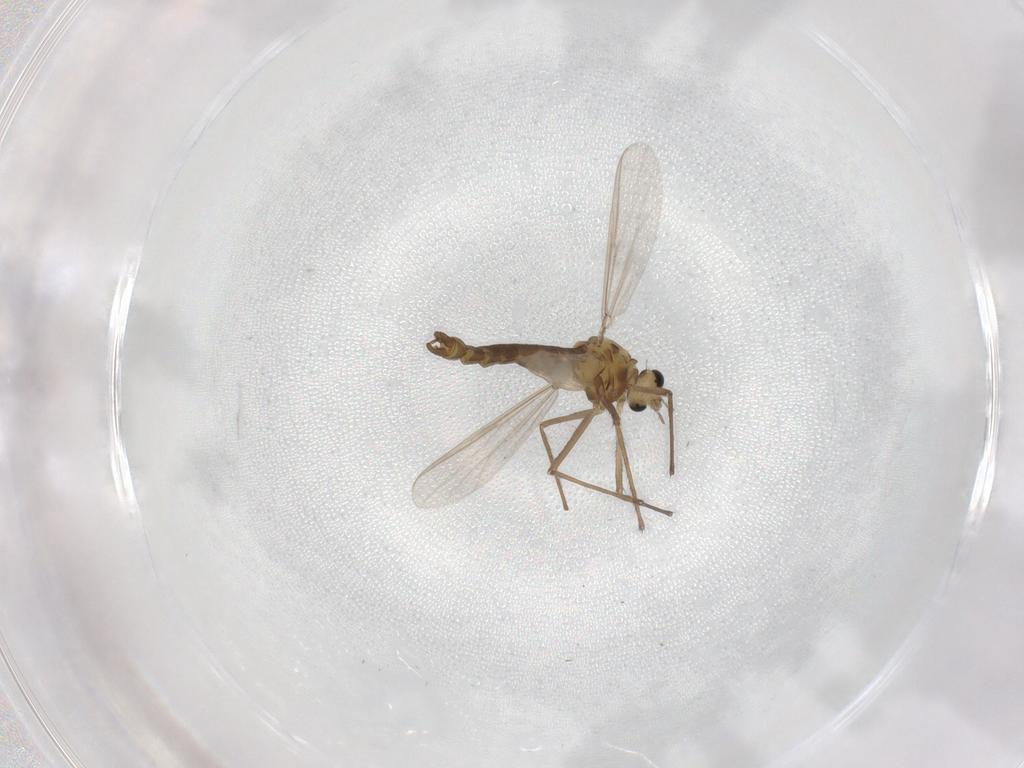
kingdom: Animalia
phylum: Arthropoda
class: Insecta
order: Diptera
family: Chironomidae
